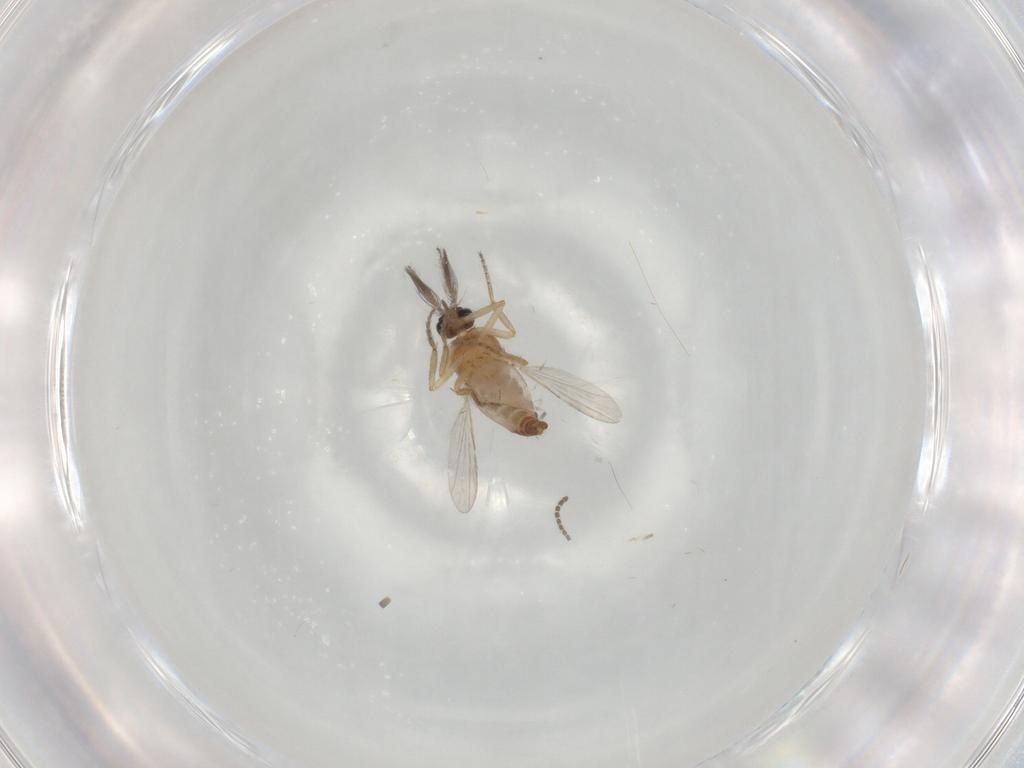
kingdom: Animalia
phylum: Arthropoda
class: Insecta
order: Diptera
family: Ceratopogonidae
